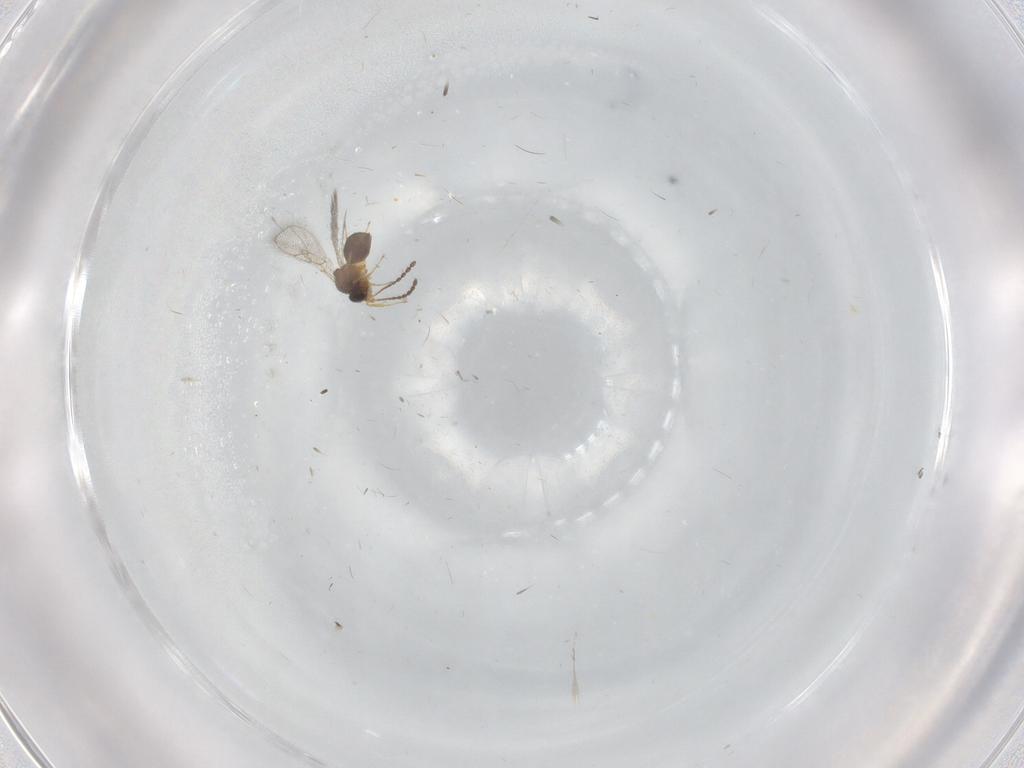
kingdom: Animalia
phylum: Arthropoda
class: Insecta
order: Hymenoptera
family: Figitidae
